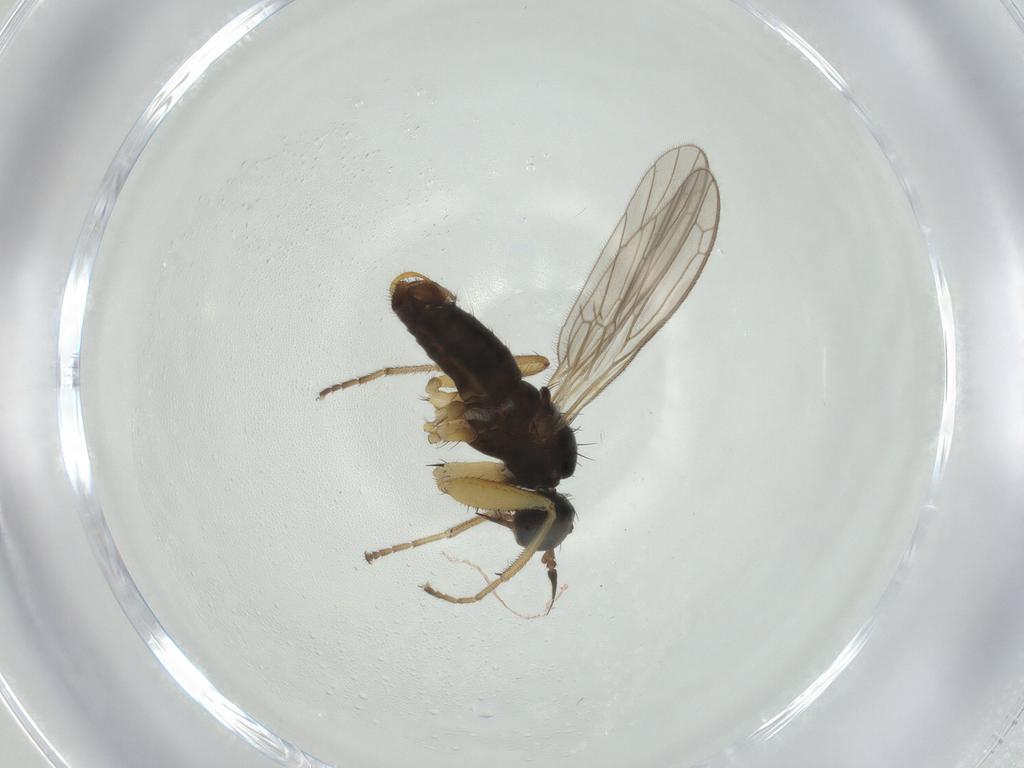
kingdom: Animalia
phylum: Arthropoda
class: Insecta
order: Diptera
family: Empididae
